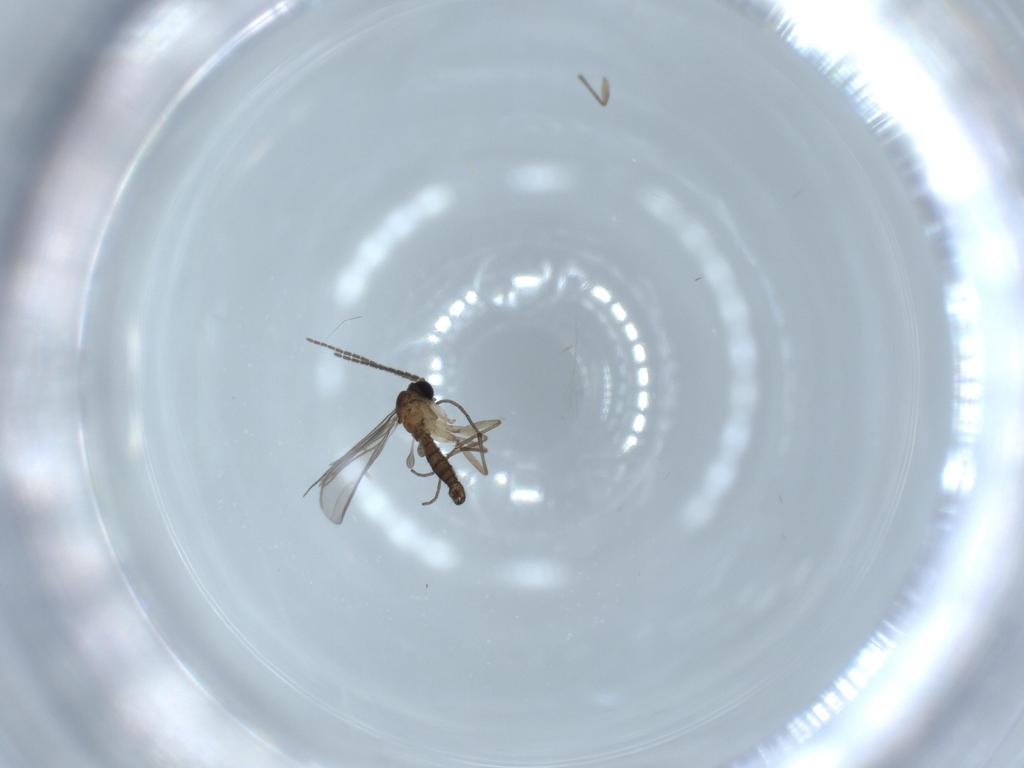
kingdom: Animalia
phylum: Arthropoda
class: Insecta
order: Diptera
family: Sciaridae
